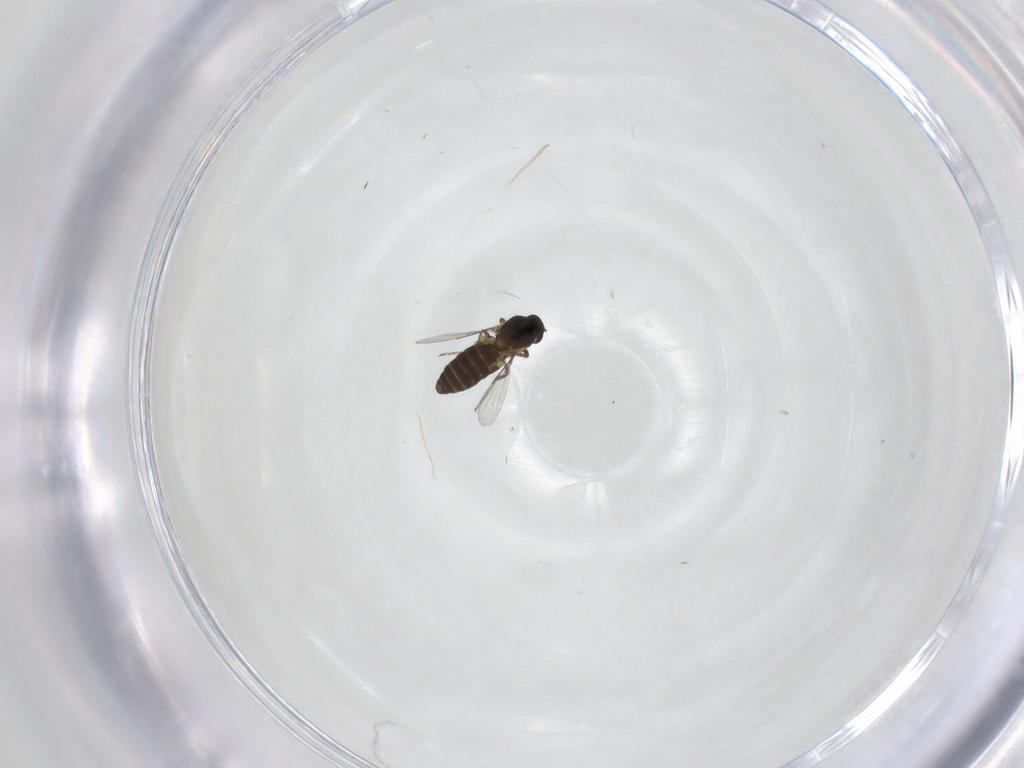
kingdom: Animalia
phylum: Arthropoda
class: Insecta
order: Diptera
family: Ceratopogonidae
